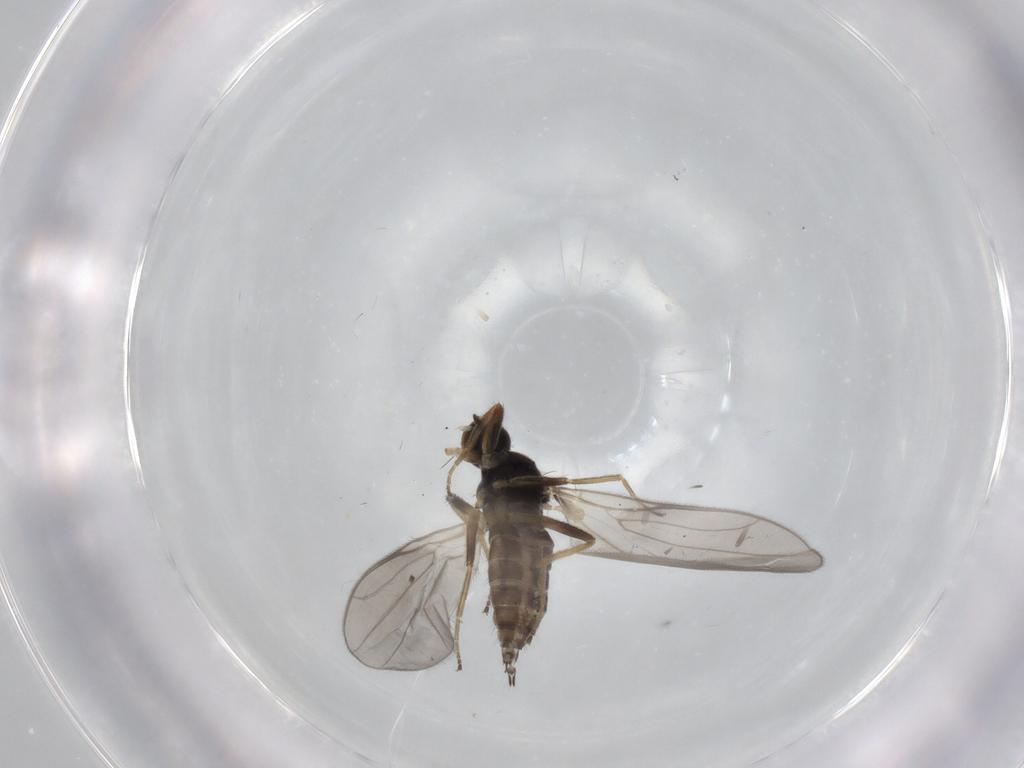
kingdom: Animalia
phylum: Arthropoda
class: Insecta
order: Diptera
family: Hybotidae
